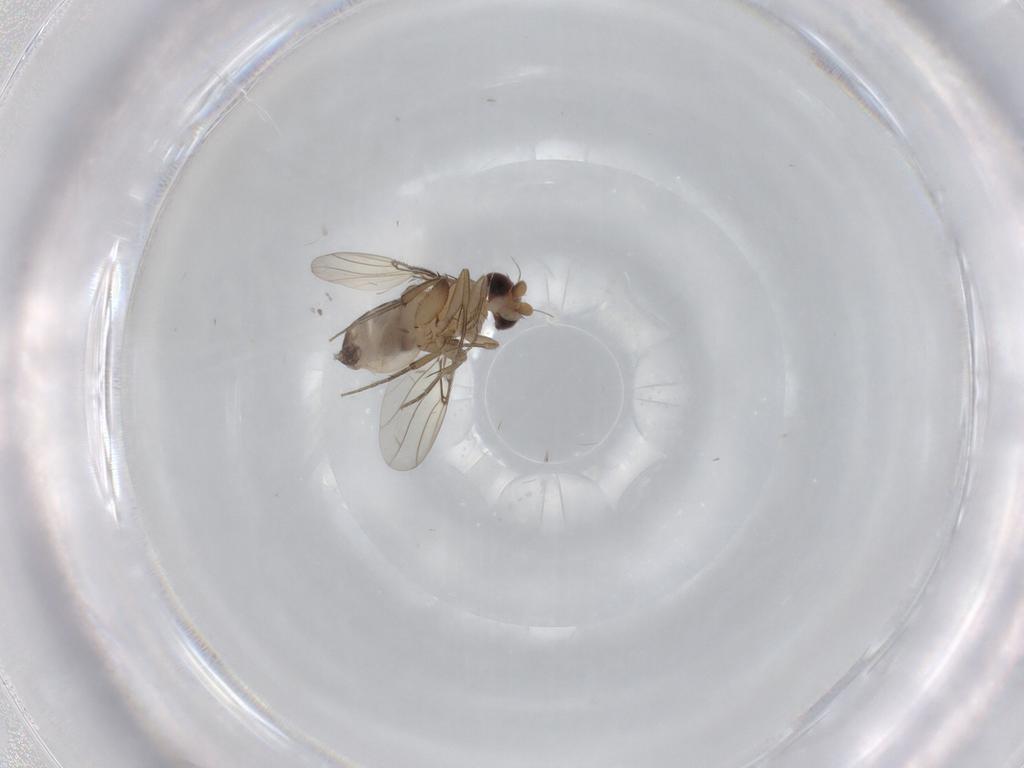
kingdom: Animalia
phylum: Arthropoda
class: Insecta
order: Diptera
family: Phoridae
